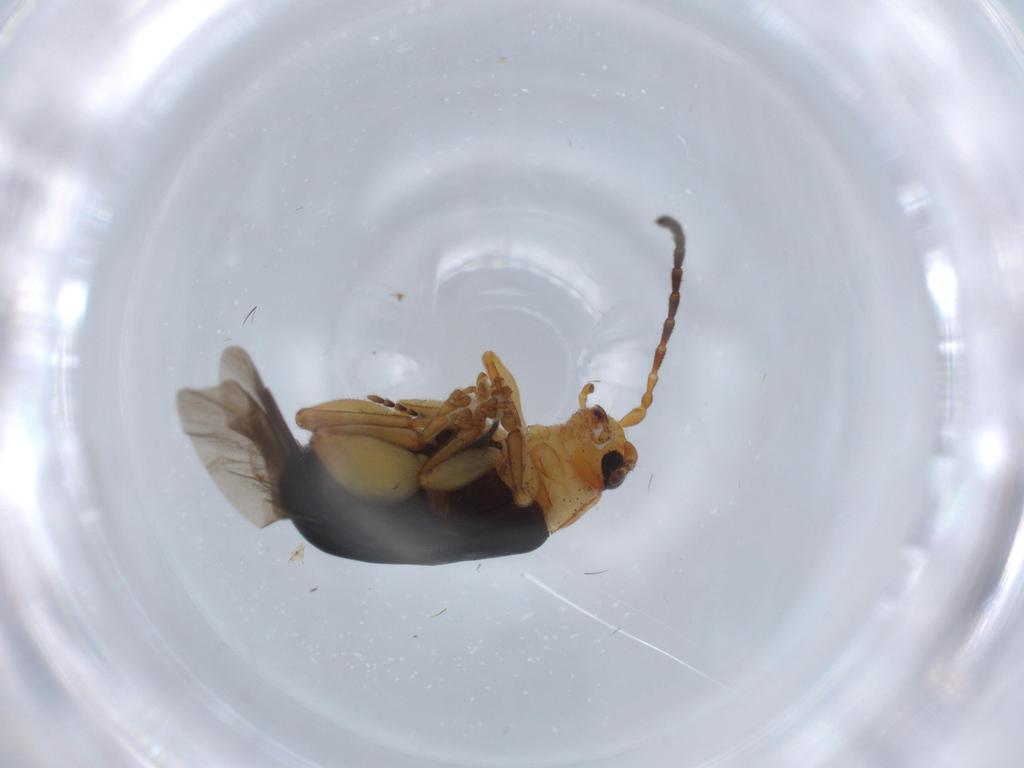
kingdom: Animalia
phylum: Arthropoda
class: Insecta
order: Coleoptera
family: Chrysomelidae
